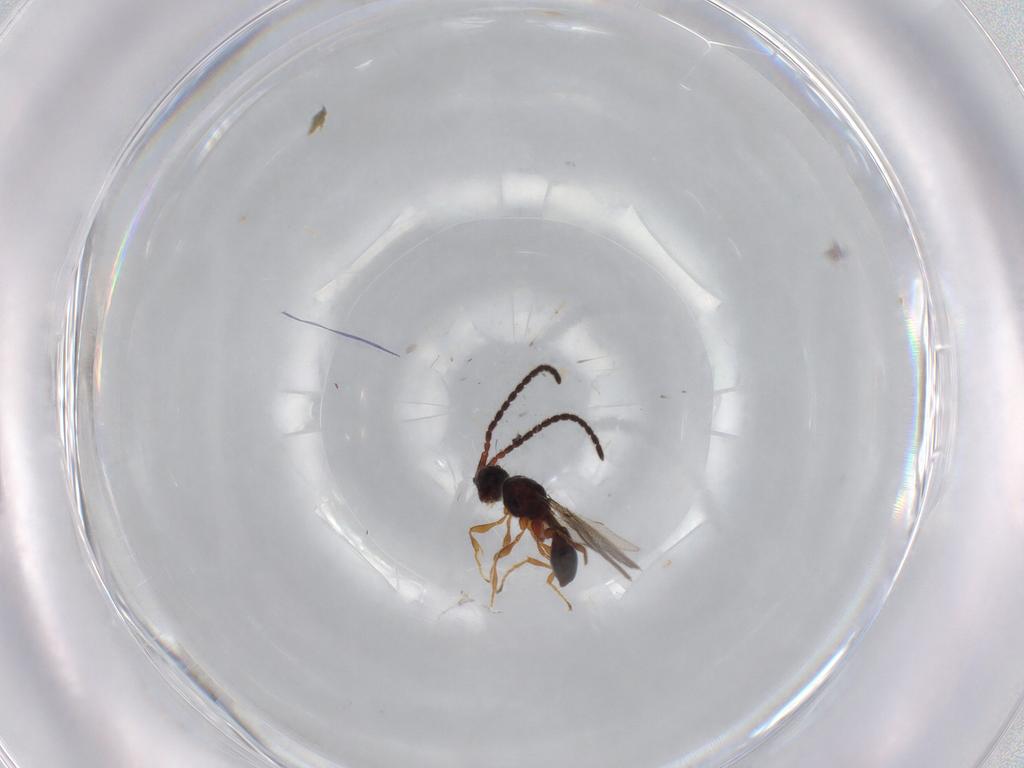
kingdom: Animalia
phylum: Arthropoda
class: Insecta
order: Hymenoptera
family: Diapriidae
